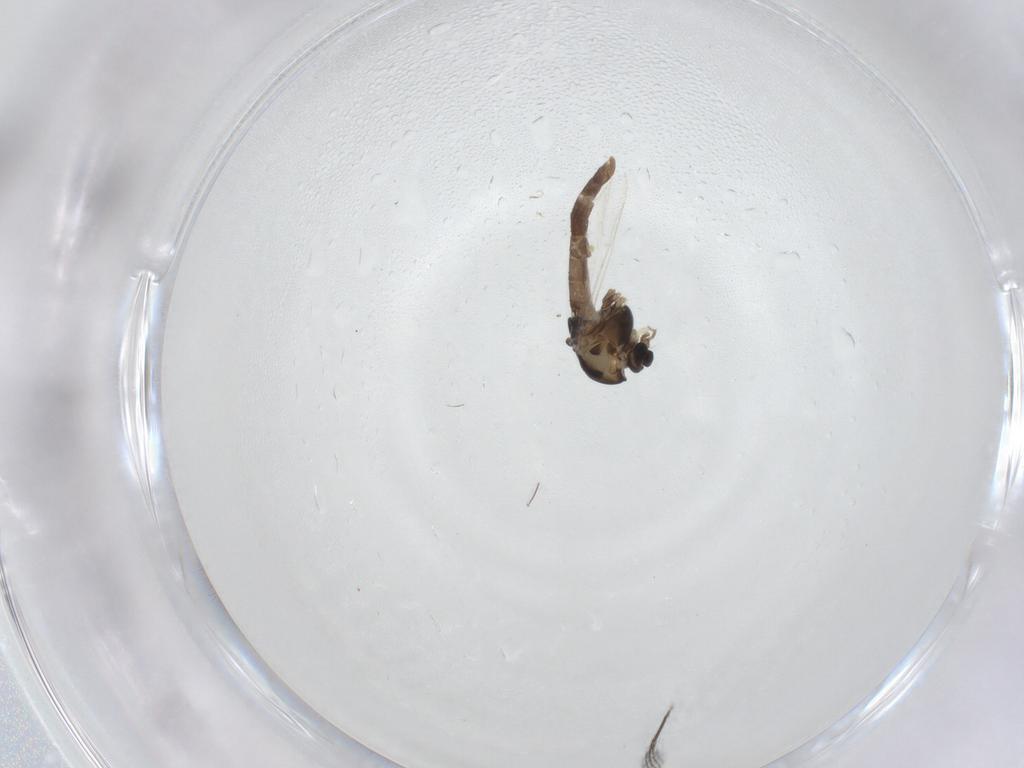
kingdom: Animalia
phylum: Arthropoda
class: Insecta
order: Diptera
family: Chironomidae
